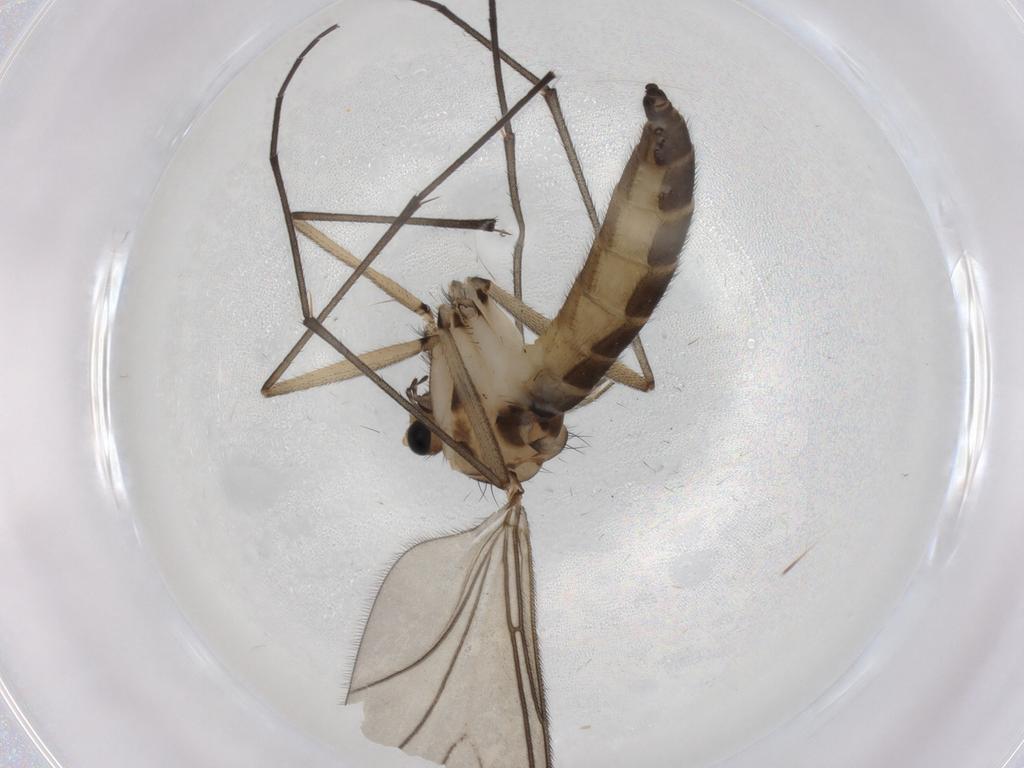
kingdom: Animalia
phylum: Arthropoda
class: Insecta
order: Diptera
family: Sciaridae
